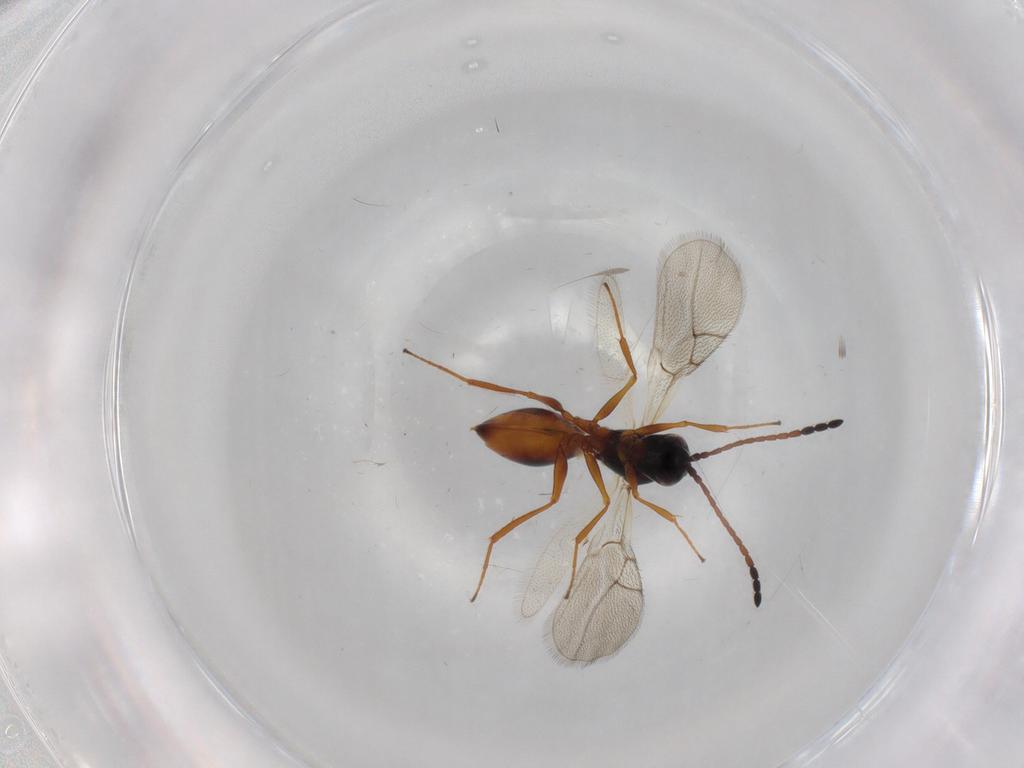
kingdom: Animalia
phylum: Arthropoda
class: Insecta
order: Hymenoptera
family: Figitidae
